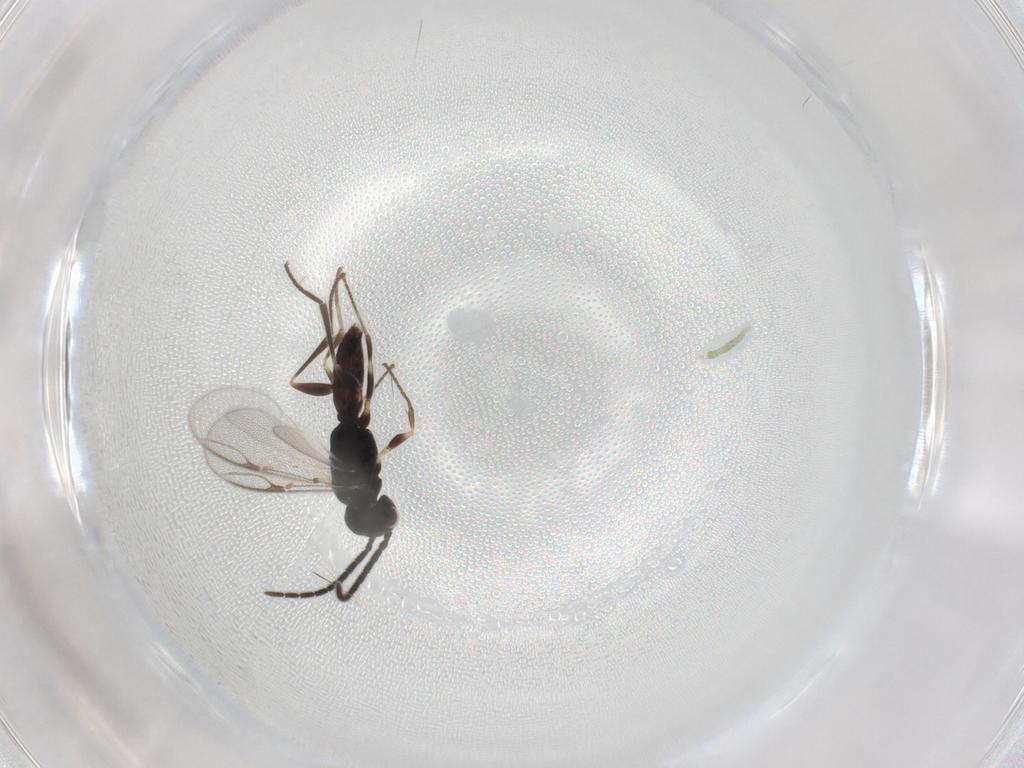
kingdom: Animalia
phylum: Arthropoda
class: Insecta
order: Hymenoptera
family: Dryinidae
